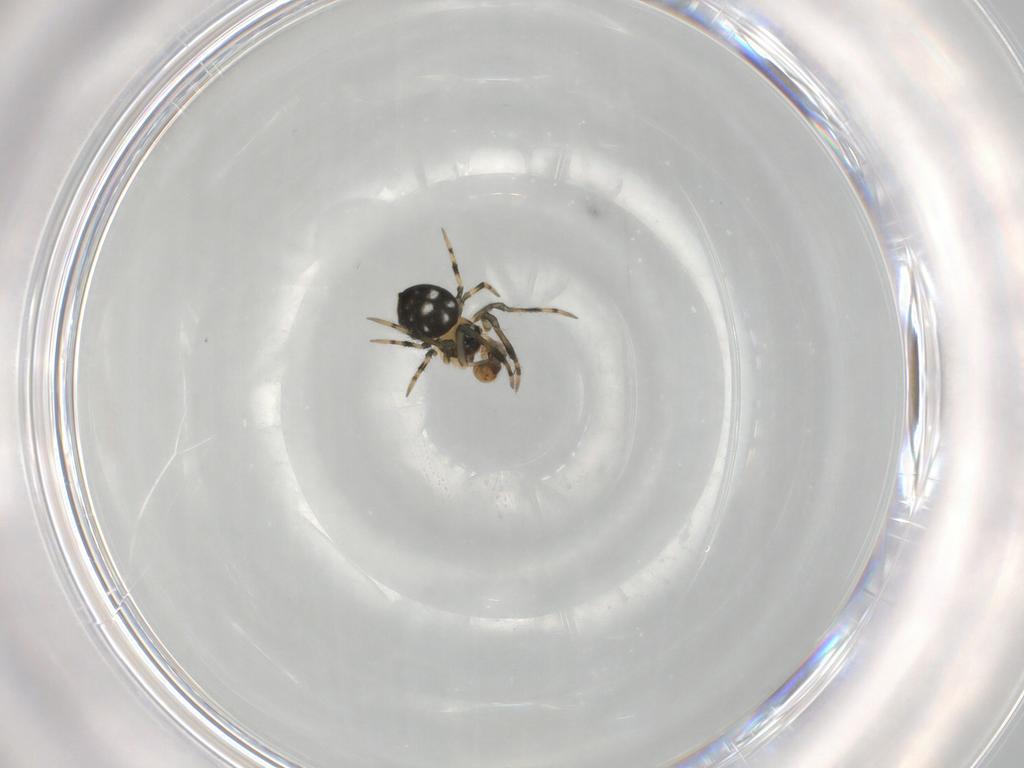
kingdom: Animalia
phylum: Arthropoda
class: Arachnida
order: Araneae
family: Mysmenidae
